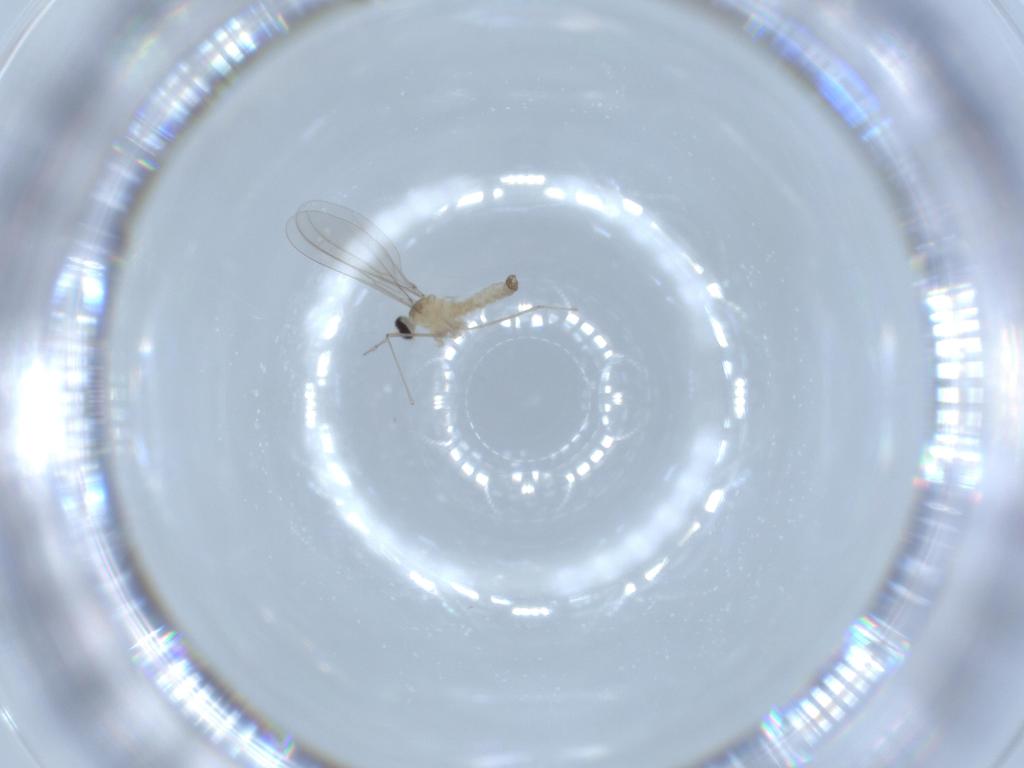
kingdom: Animalia
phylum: Arthropoda
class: Insecta
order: Diptera
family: Cecidomyiidae
